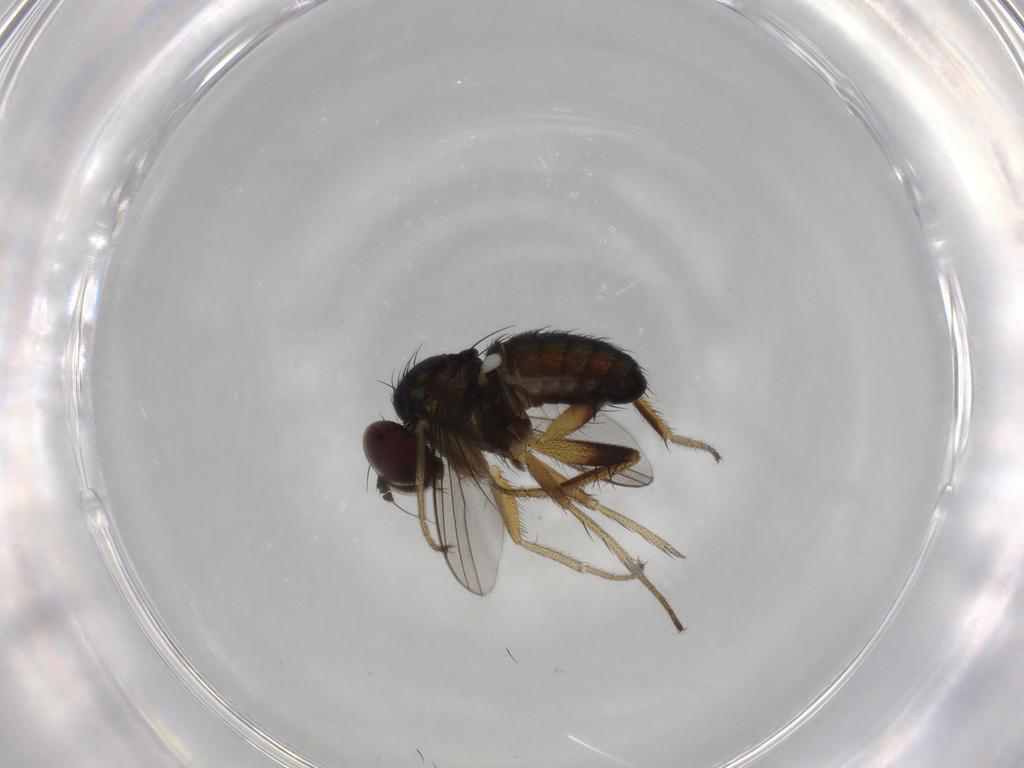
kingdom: Animalia
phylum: Arthropoda
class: Insecta
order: Diptera
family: Dolichopodidae
